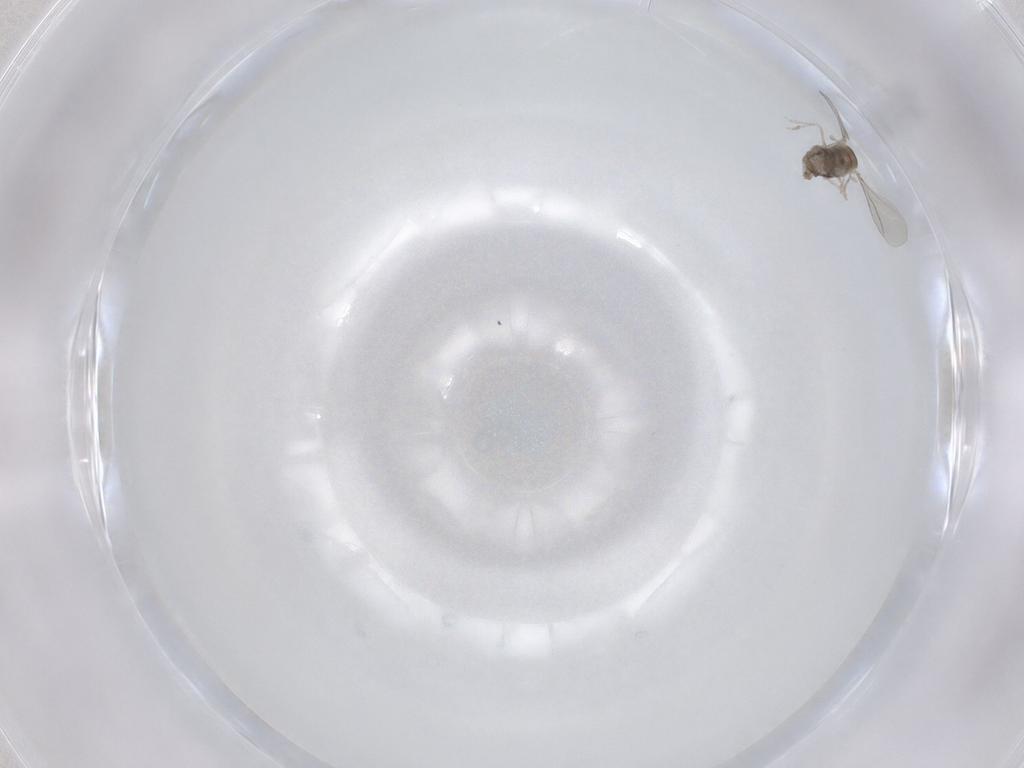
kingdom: Animalia
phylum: Arthropoda
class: Insecta
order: Diptera
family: Cecidomyiidae
